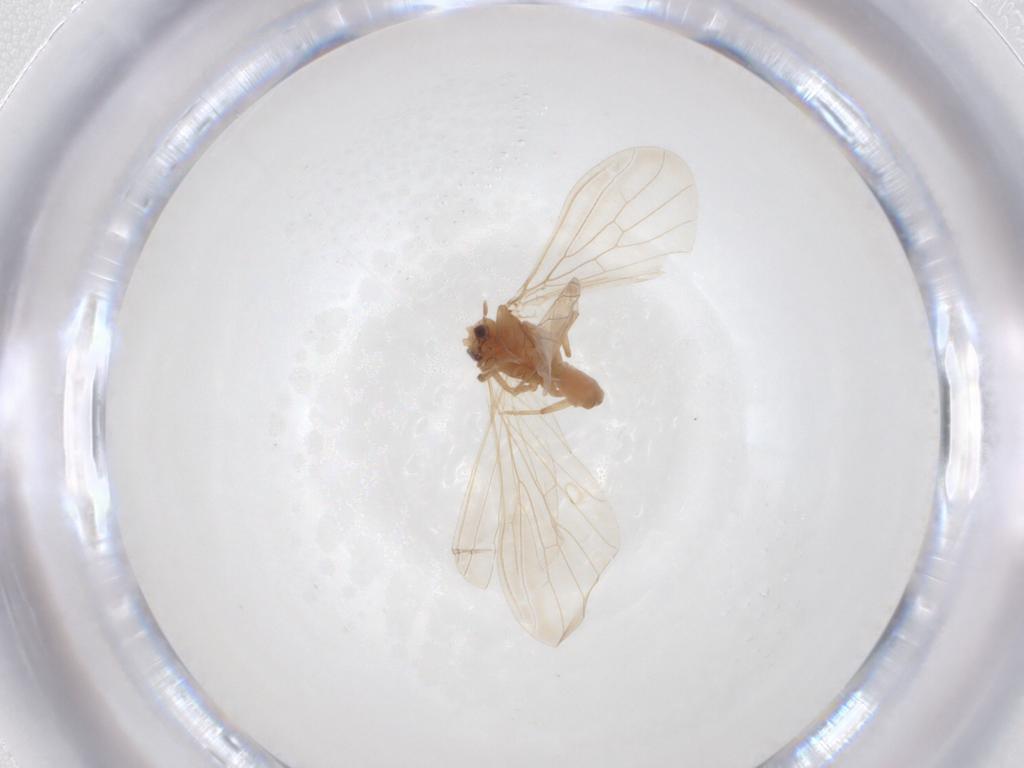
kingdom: Animalia
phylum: Arthropoda
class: Insecta
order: Neuroptera
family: Coniopterygidae
